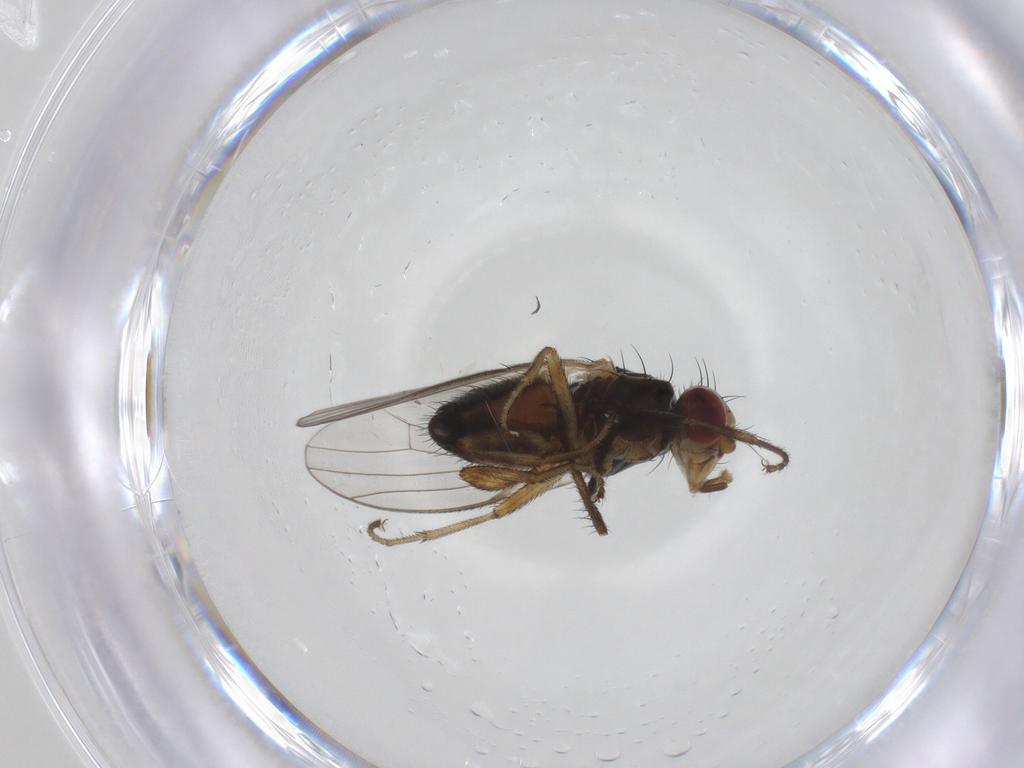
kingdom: Animalia
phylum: Arthropoda
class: Insecta
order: Diptera
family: Heleomyzidae
